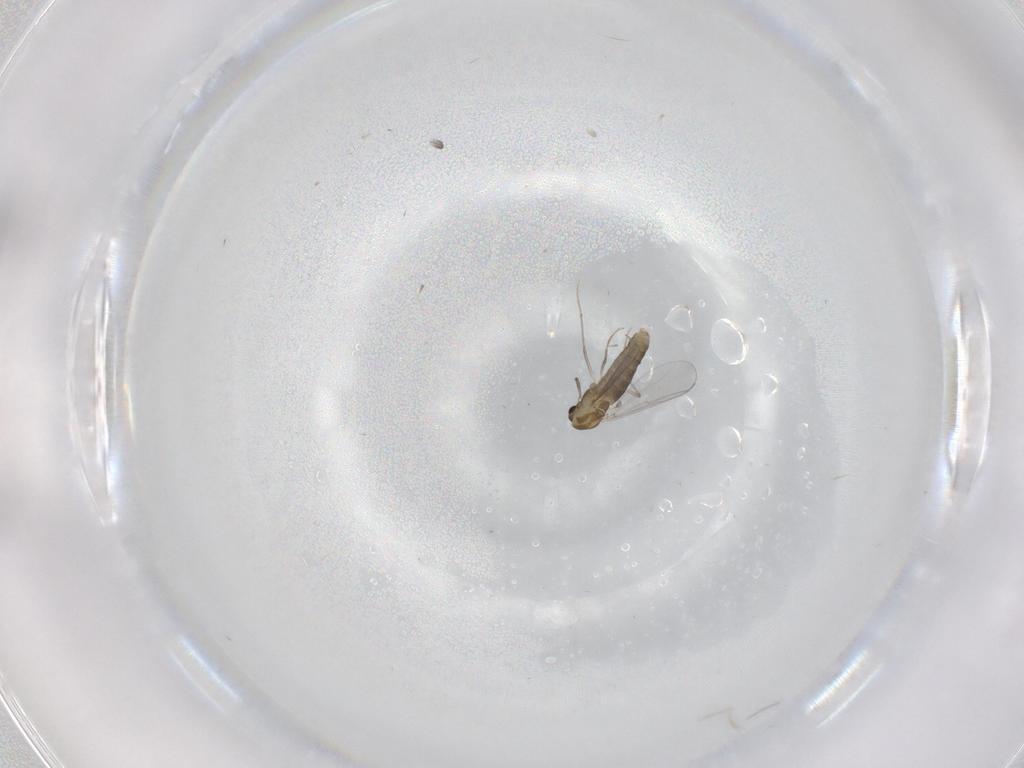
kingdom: Animalia
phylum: Arthropoda
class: Insecta
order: Diptera
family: Chironomidae
